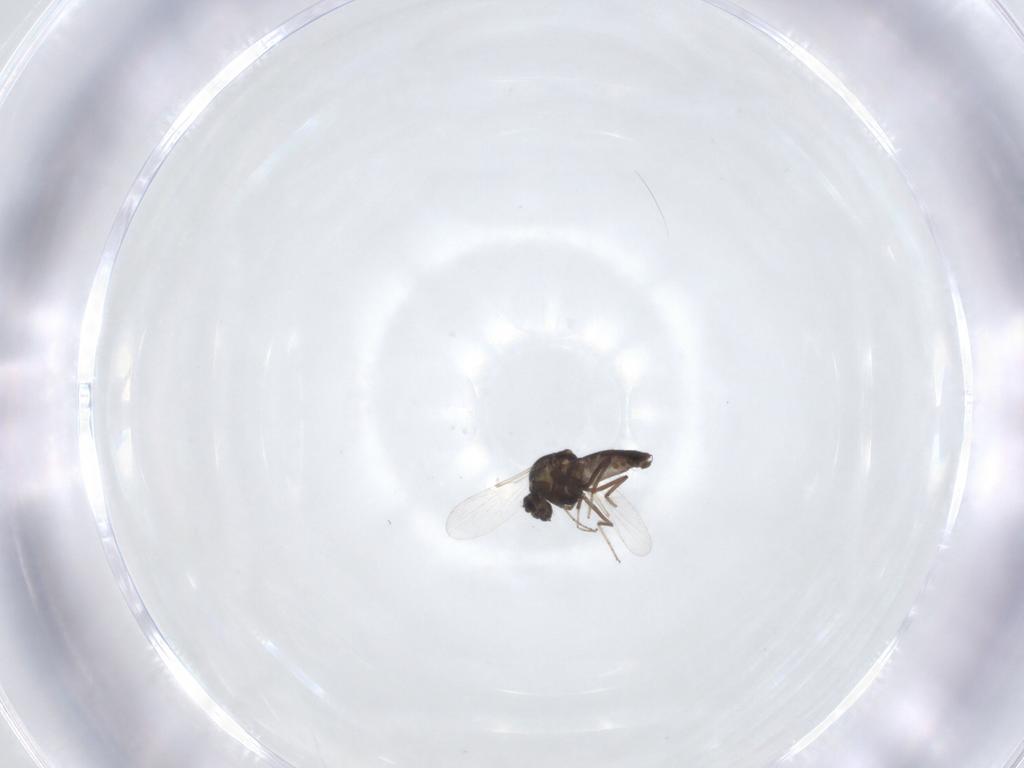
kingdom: Animalia
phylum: Arthropoda
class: Insecta
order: Diptera
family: Ceratopogonidae
